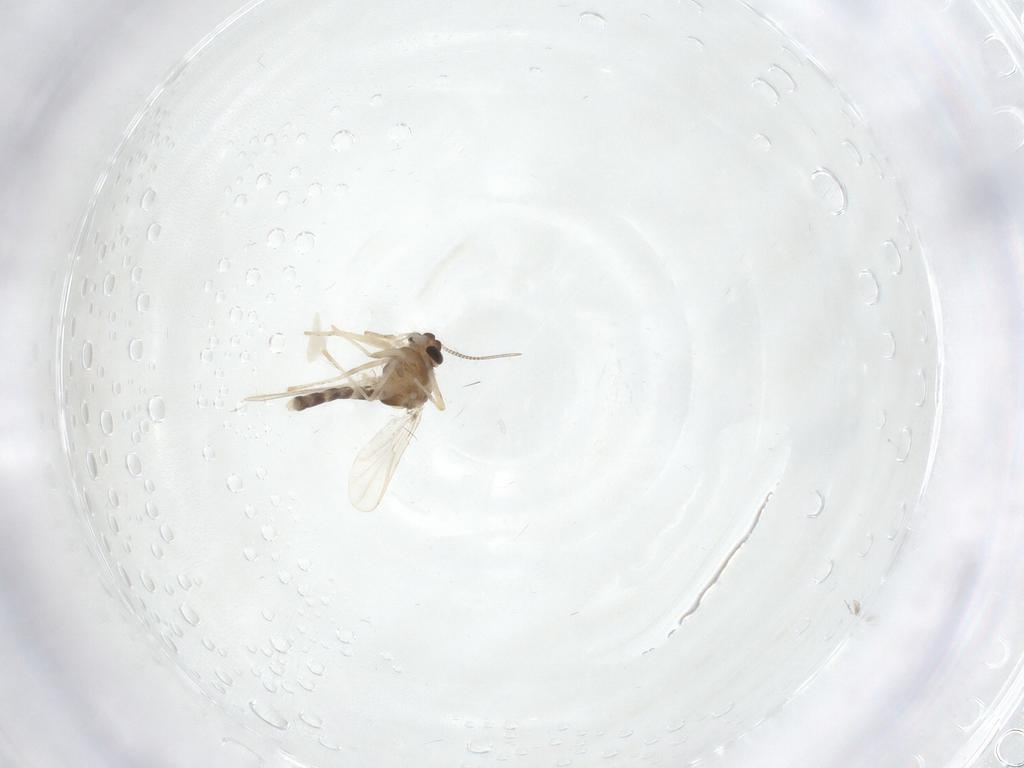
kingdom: Animalia
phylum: Arthropoda
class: Insecta
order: Diptera
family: Chironomidae
